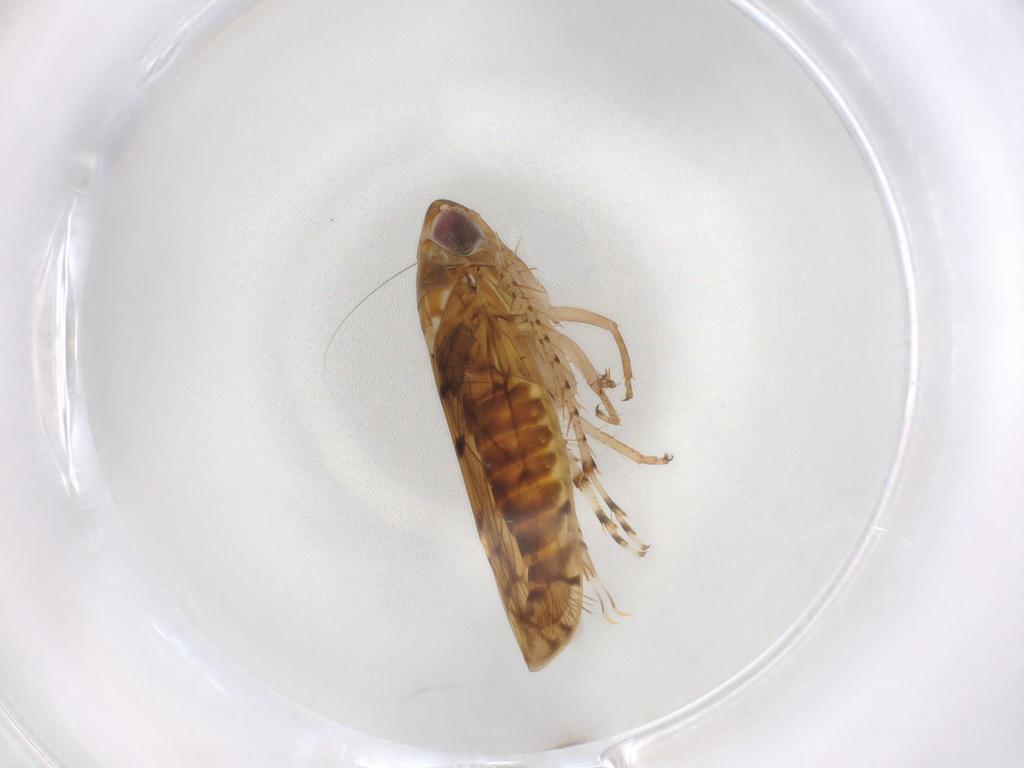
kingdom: Animalia
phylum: Arthropoda
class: Insecta
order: Hemiptera
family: Cicadellidae
